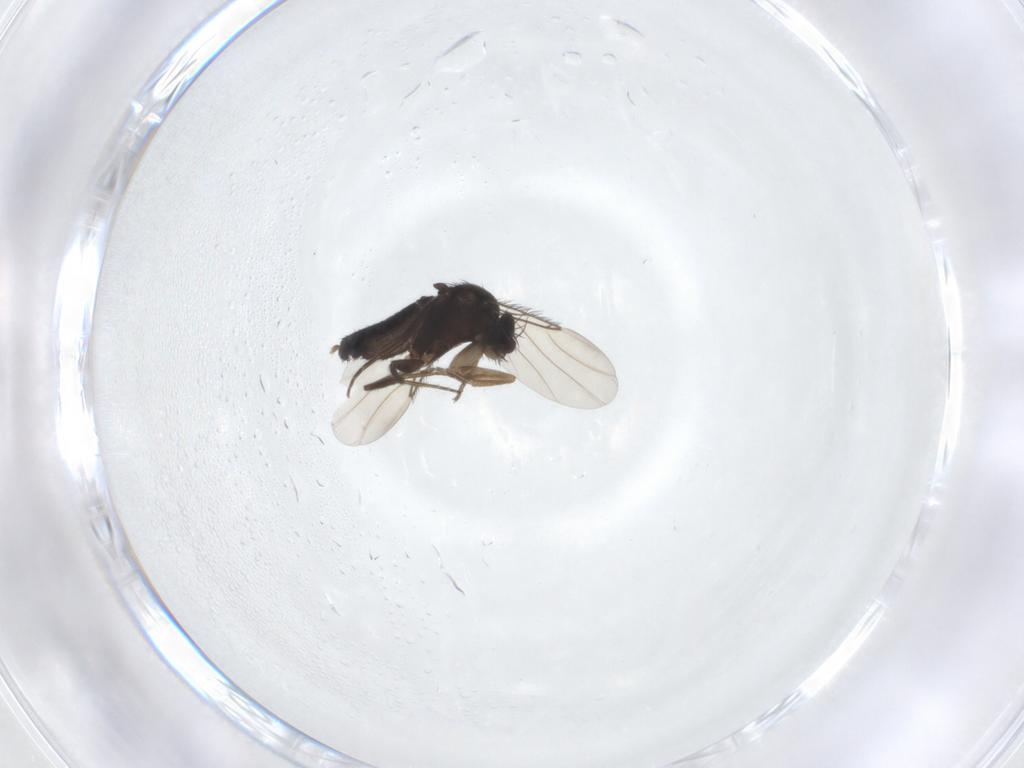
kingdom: Animalia
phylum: Arthropoda
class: Insecta
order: Diptera
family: Phoridae
